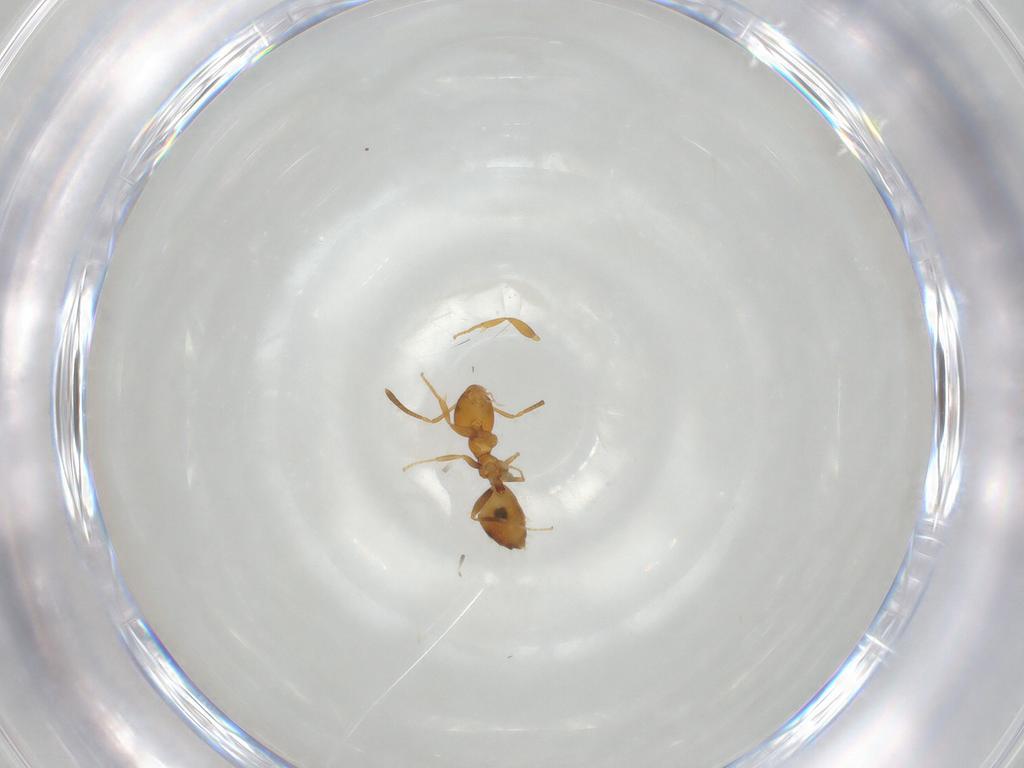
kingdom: Animalia
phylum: Arthropoda
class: Insecta
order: Hymenoptera
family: Formicidae
